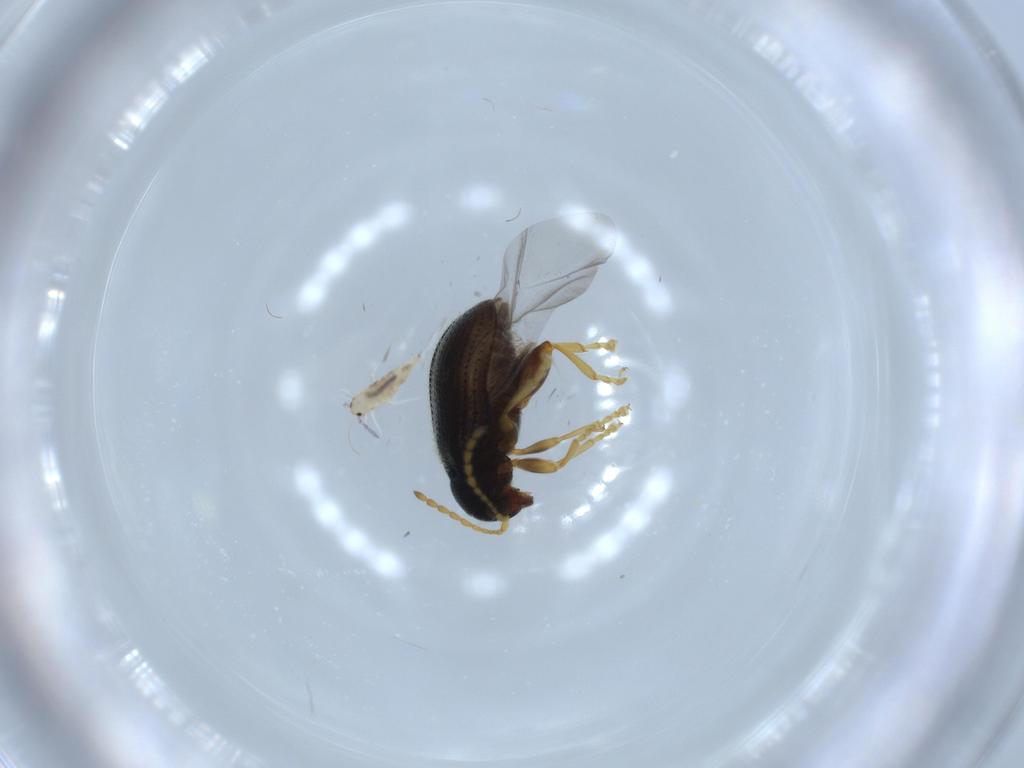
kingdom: Animalia
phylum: Arthropoda
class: Insecta
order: Coleoptera
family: Chrysomelidae
